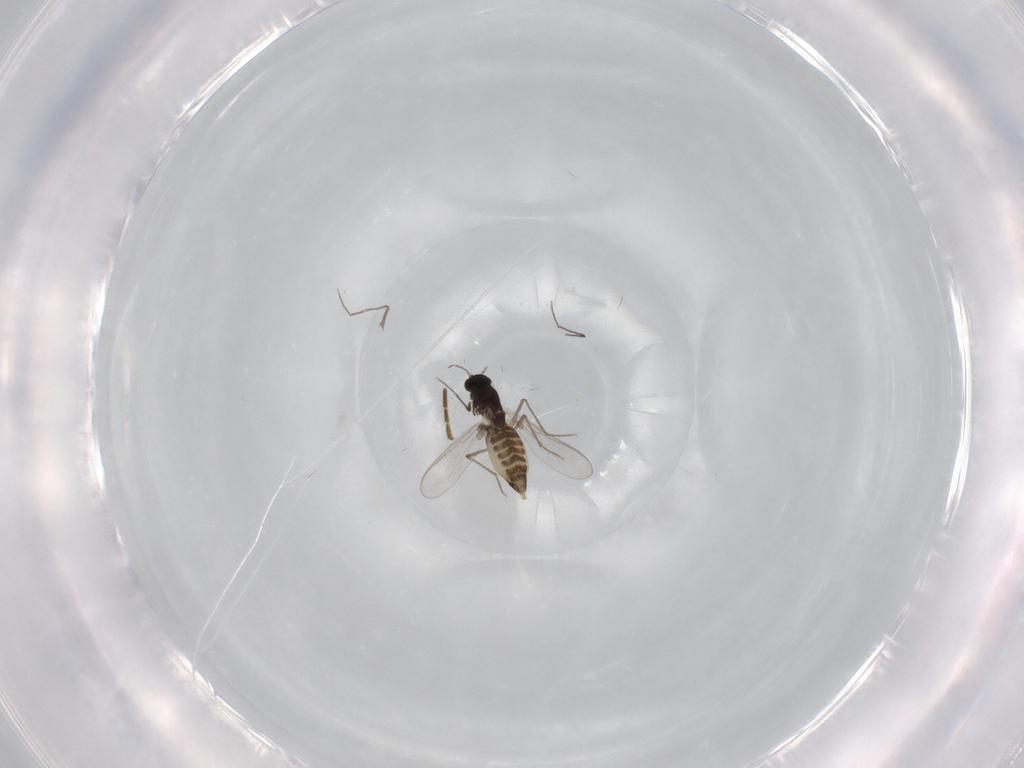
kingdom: Animalia
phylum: Arthropoda
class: Insecta
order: Diptera
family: Chironomidae
